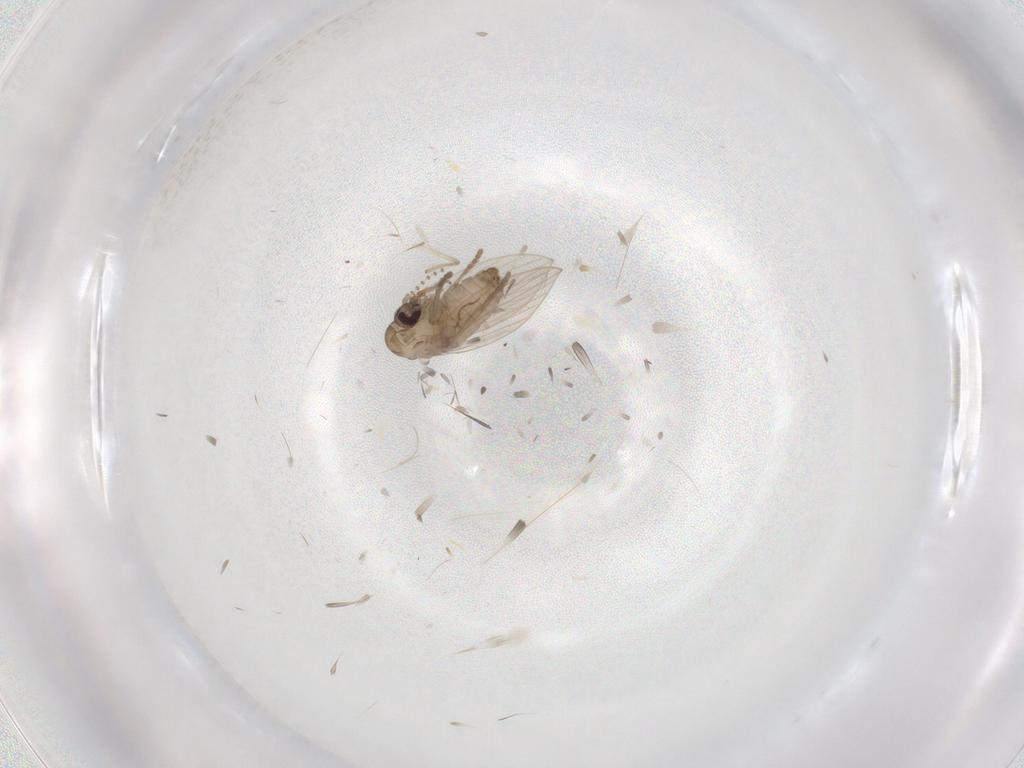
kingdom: Animalia
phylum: Arthropoda
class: Insecta
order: Diptera
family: Psychodidae
